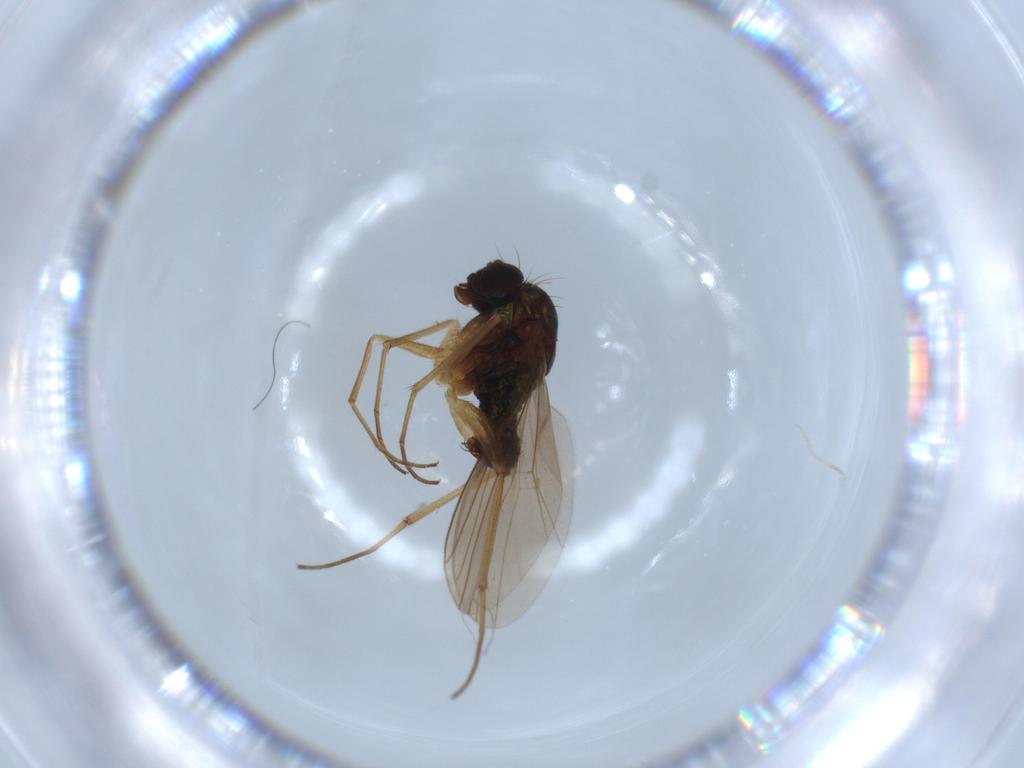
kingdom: Animalia
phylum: Arthropoda
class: Insecta
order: Diptera
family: Dolichopodidae
